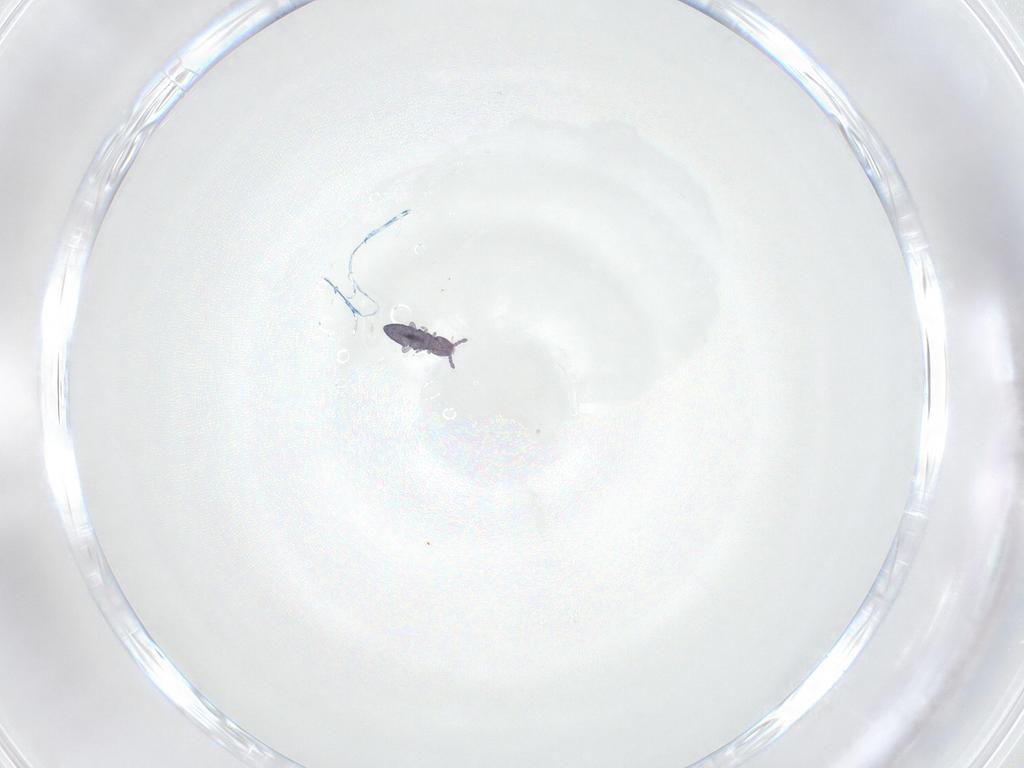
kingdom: Animalia
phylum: Arthropoda
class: Collembola
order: Entomobryomorpha
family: Isotomidae
